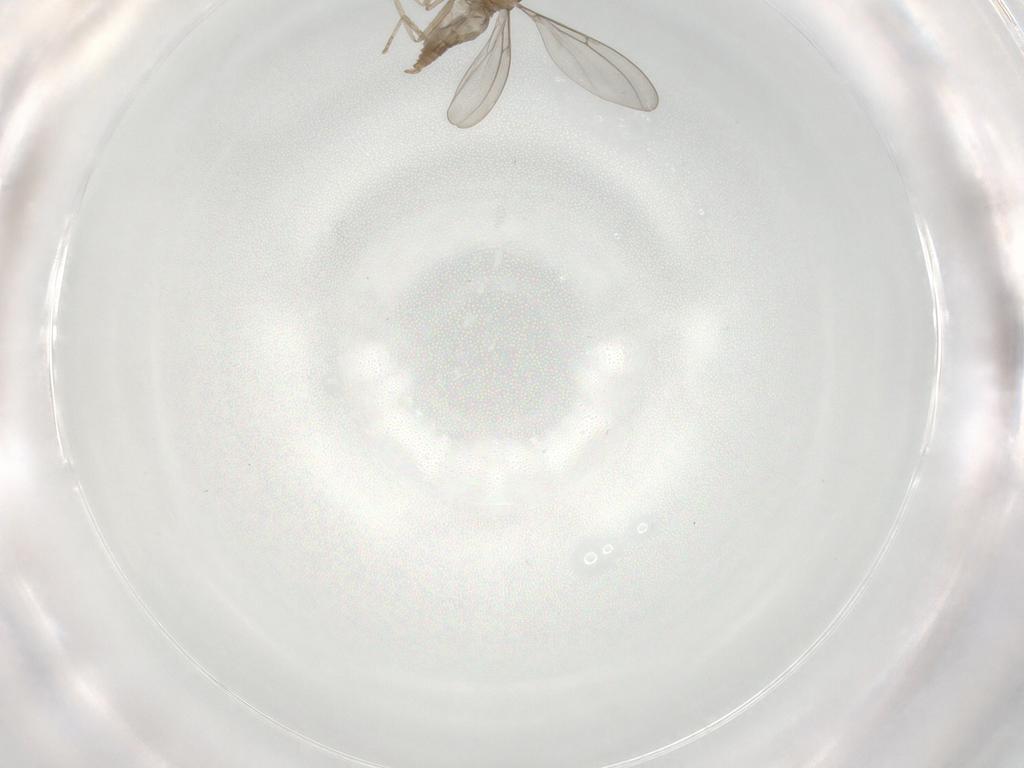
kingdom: Animalia
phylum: Arthropoda
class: Insecta
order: Diptera
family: Cecidomyiidae
